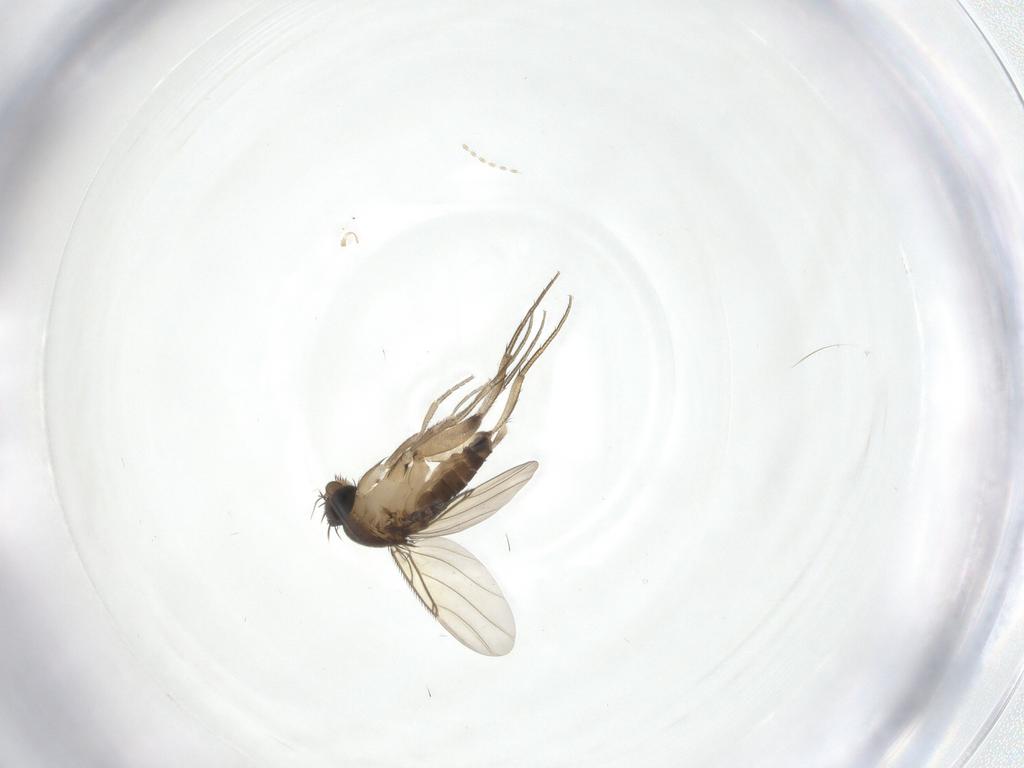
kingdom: Animalia
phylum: Arthropoda
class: Insecta
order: Diptera
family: Phoridae
